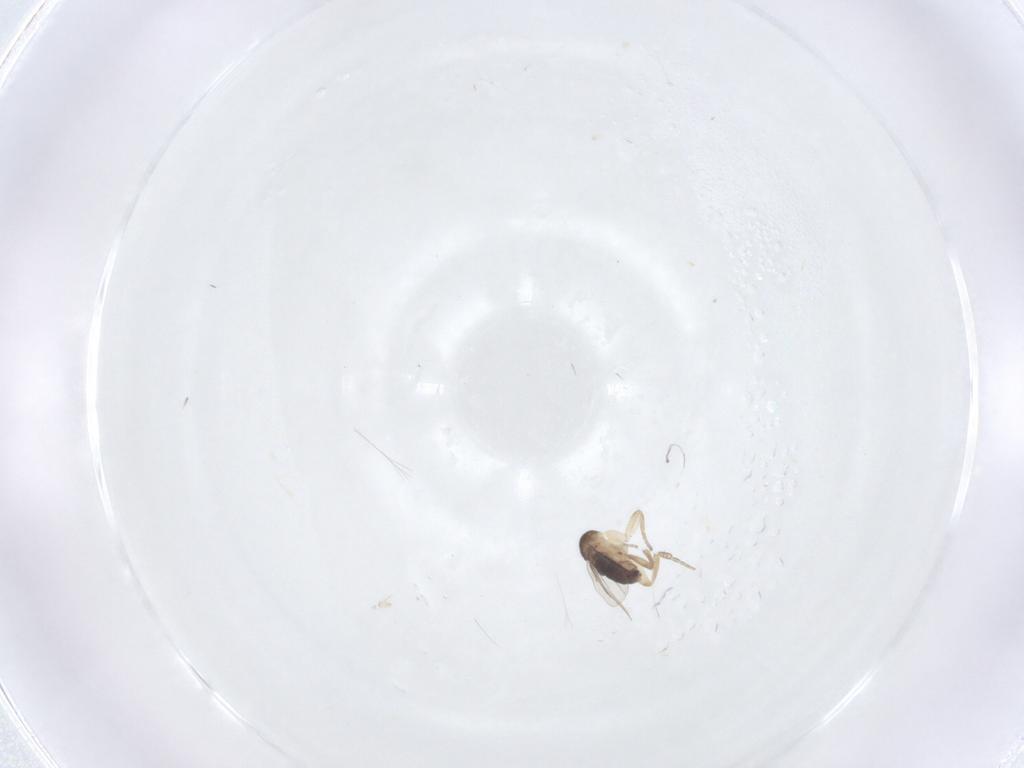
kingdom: Animalia
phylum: Arthropoda
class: Insecta
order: Diptera
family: Phoridae
